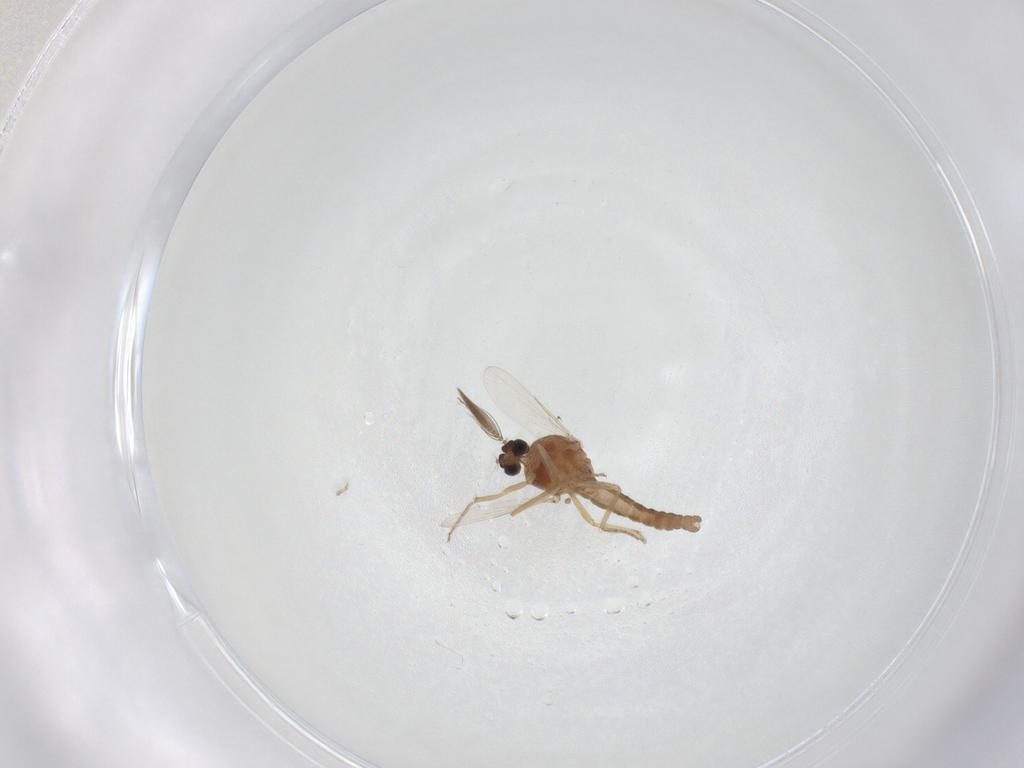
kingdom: Animalia
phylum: Arthropoda
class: Insecta
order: Diptera
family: Ceratopogonidae
